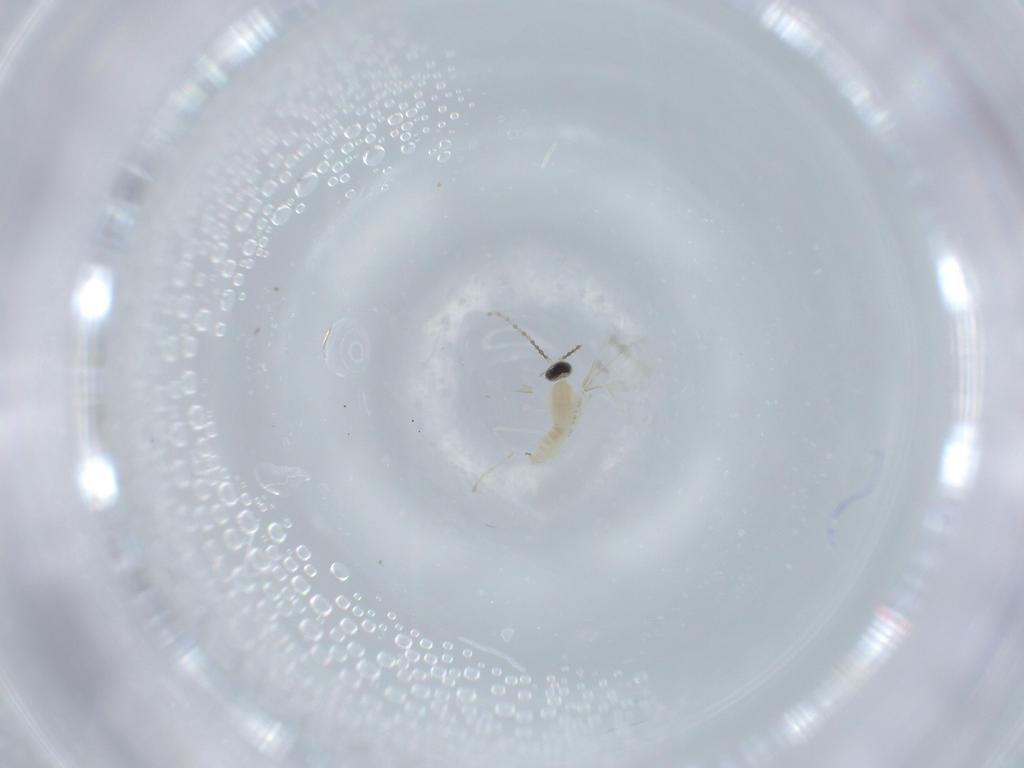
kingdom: Animalia
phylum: Arthropoda
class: Insecta
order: Diptera
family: Cecidomyiidae
